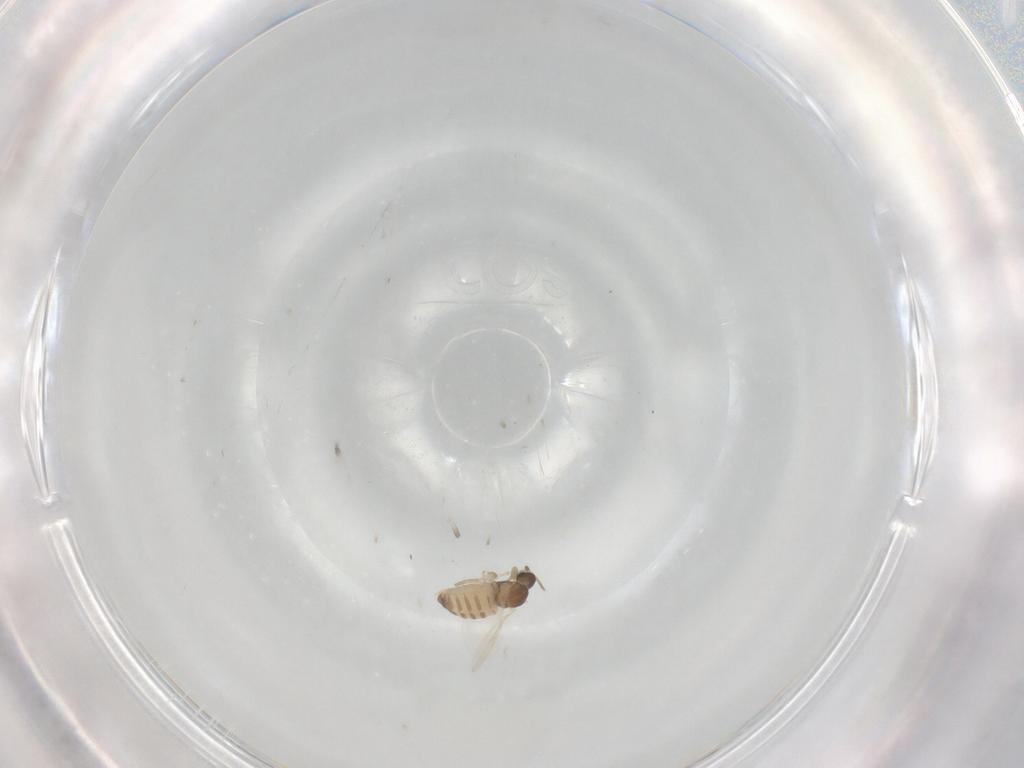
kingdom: Animalia
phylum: Arthropoda
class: Insecta
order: Diptera
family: Cecidomyiidae
